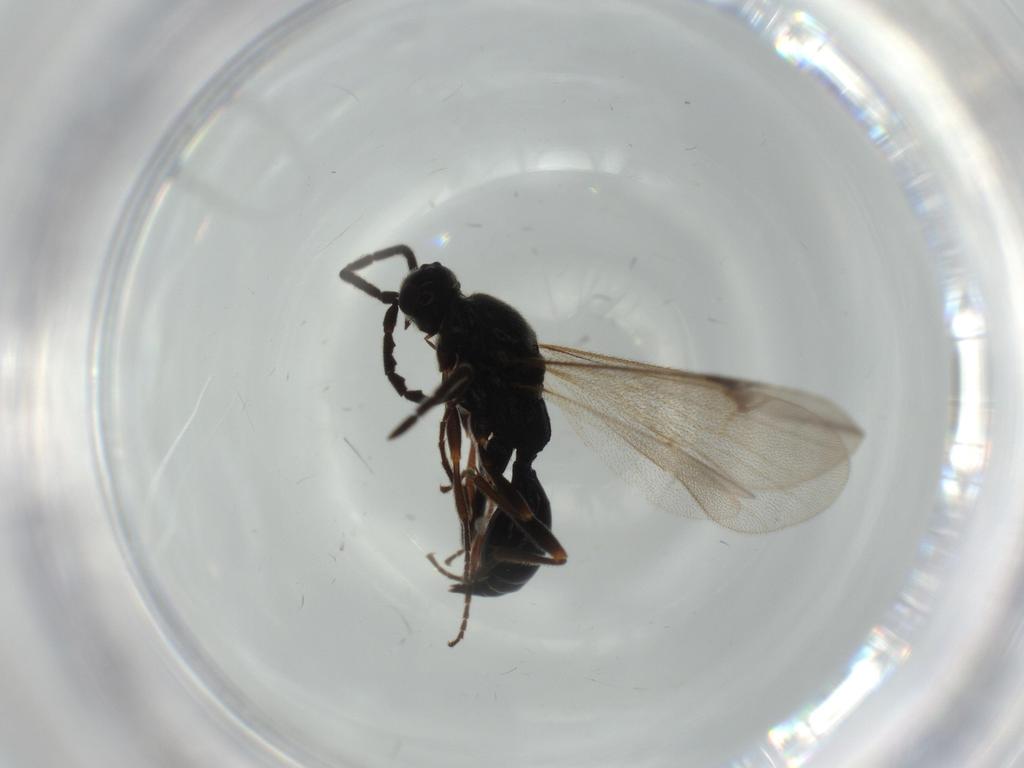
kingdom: Animalia
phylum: Arthropoda
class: Insecta
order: Hymenoptera
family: Proctotrupidae
